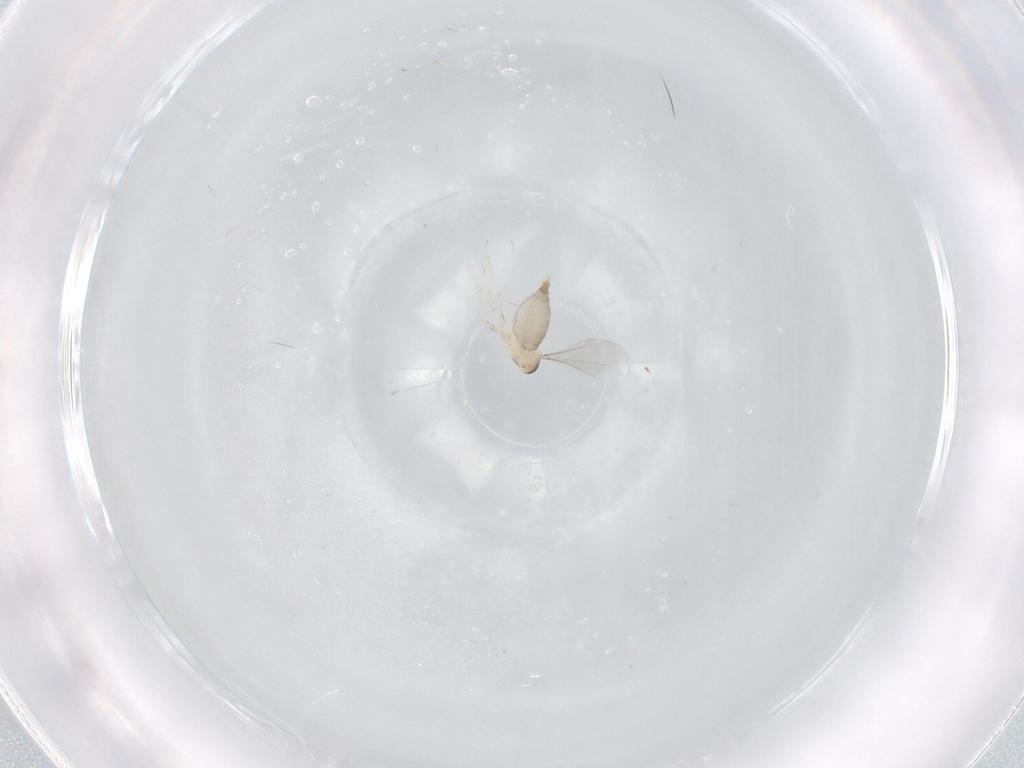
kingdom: Animalia
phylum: Arthropoda
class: Insecta
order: Diptera
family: Cecidomyiidae
